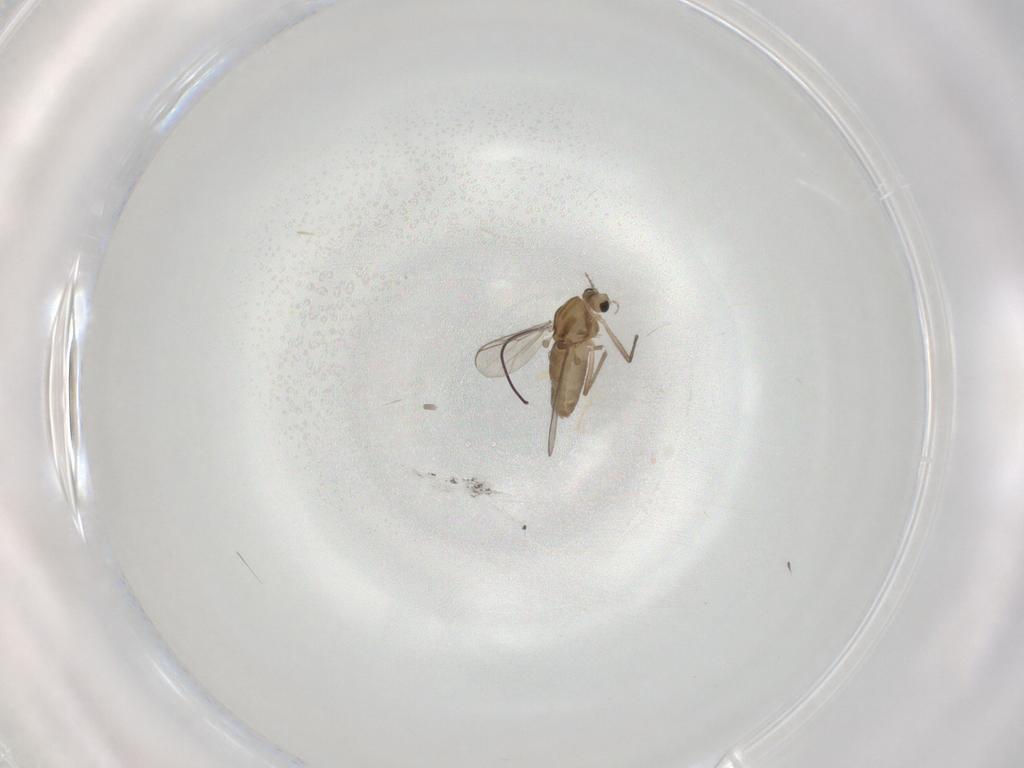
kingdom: Animalia
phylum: Arthropoda
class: Insecta
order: Diptera
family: Chironomidae
